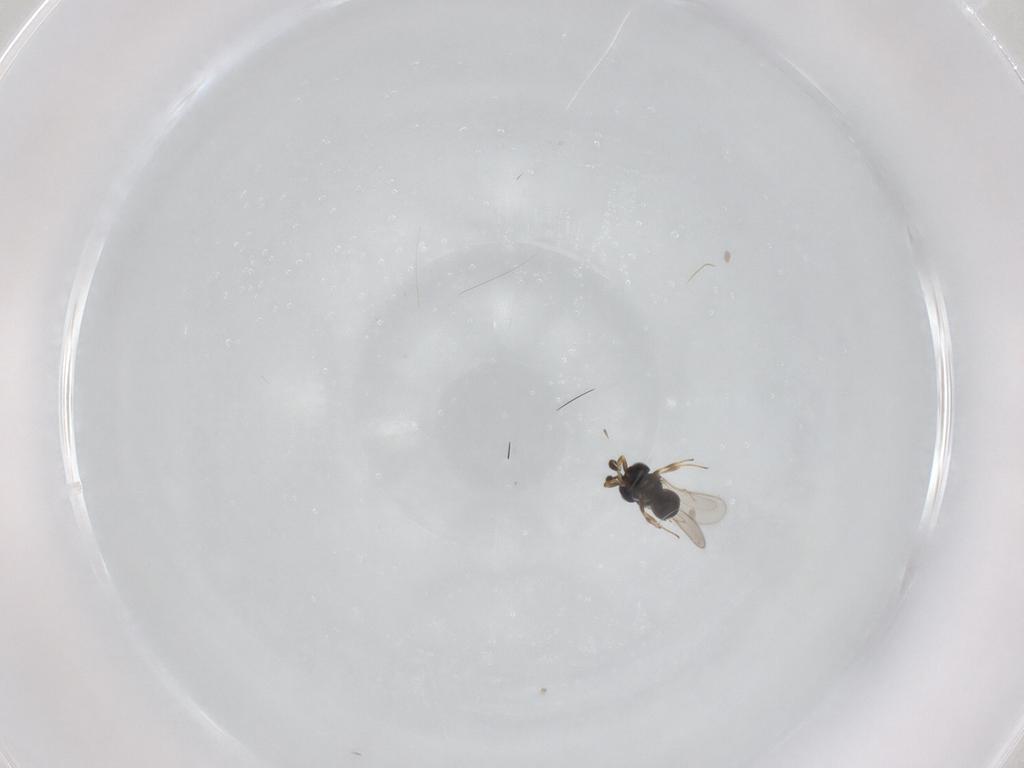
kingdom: Animalia
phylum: Arthropoda
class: Insecta
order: Hymenoptera
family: Scelionidae
